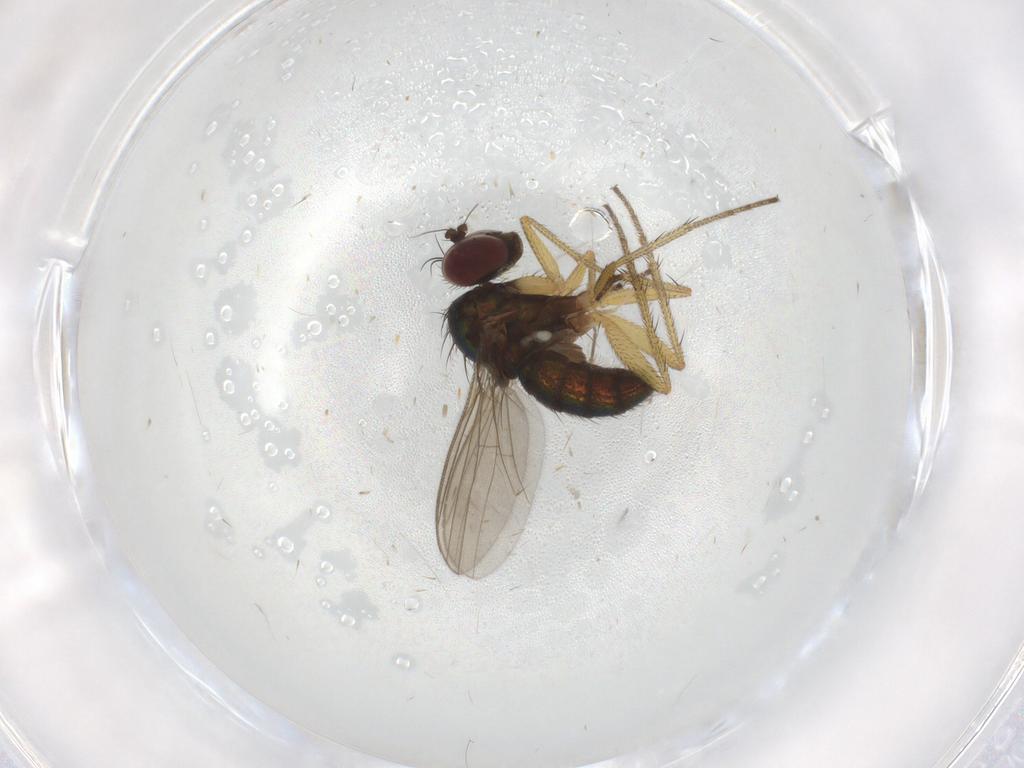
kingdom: Animalia
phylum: Arthropoda
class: Insecta
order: Diptera
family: Chironomidae
